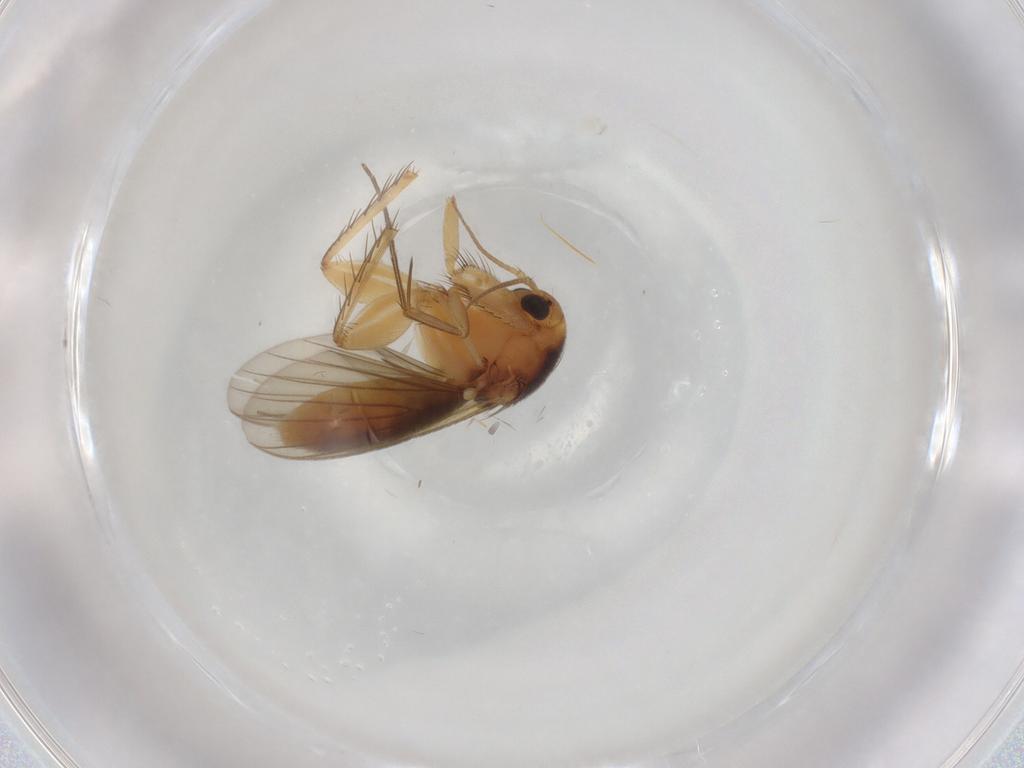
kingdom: Animalia
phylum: Arthropoda
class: Insecta
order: Diptera
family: Mycetophilidae
